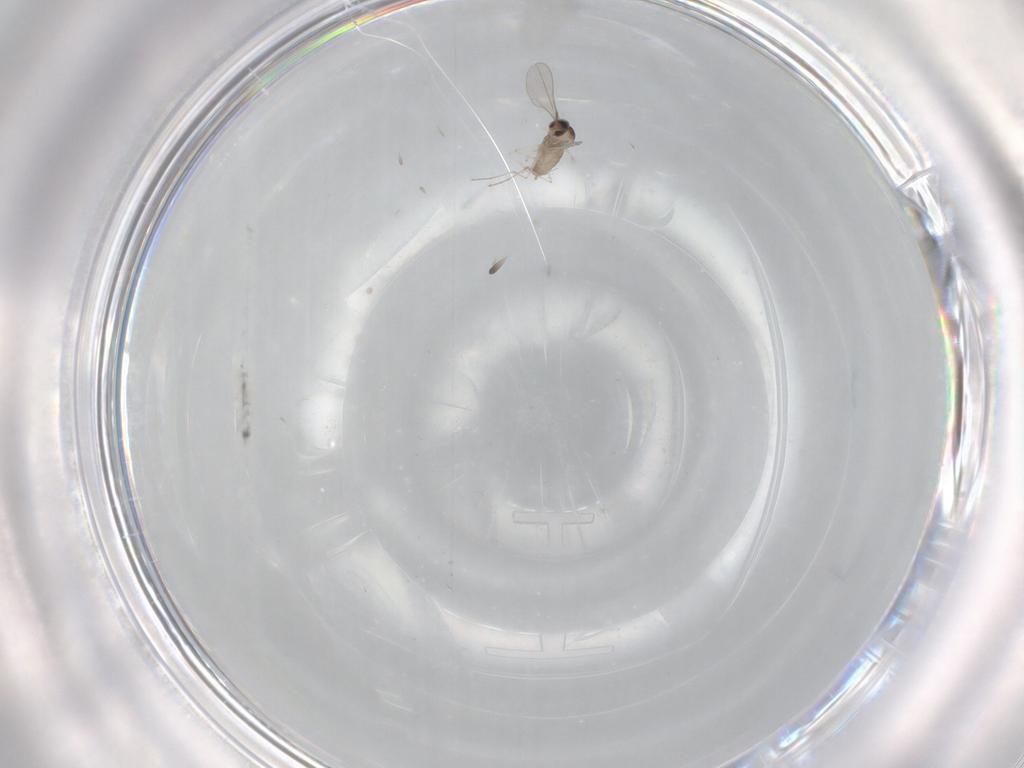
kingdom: Animalia
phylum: Arthropoda
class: Insecta
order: Diptera
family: Cecidomyiidae
